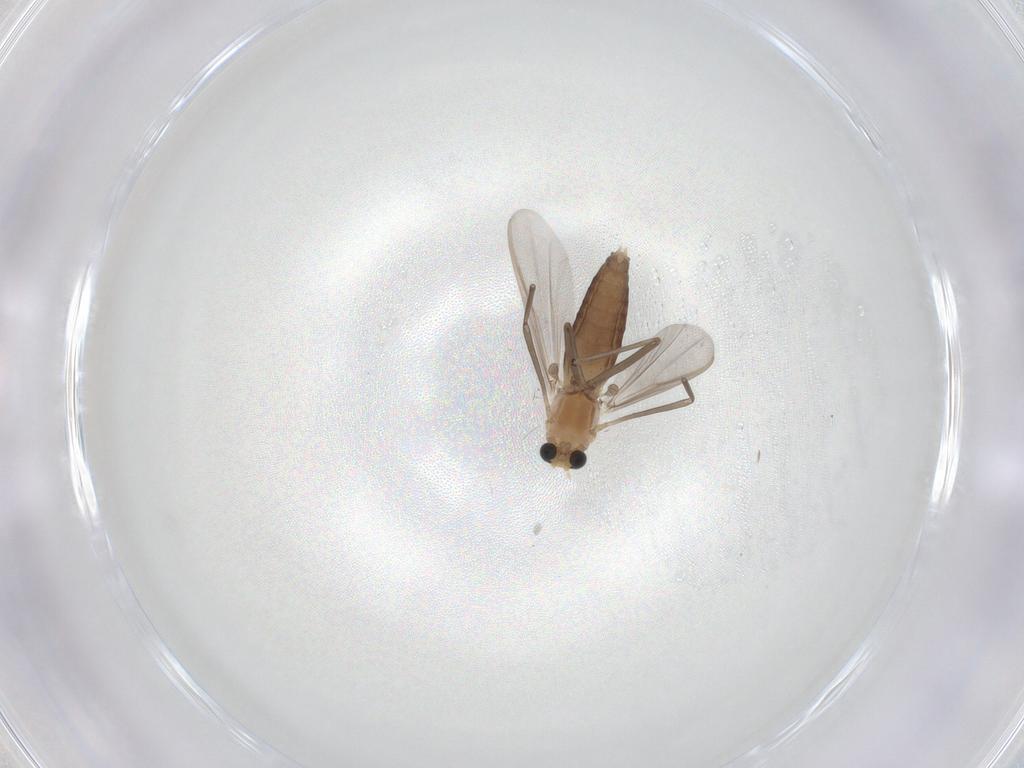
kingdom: Animalia
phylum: Arthropoda
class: Insecta
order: Diptera
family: Chironomidae
